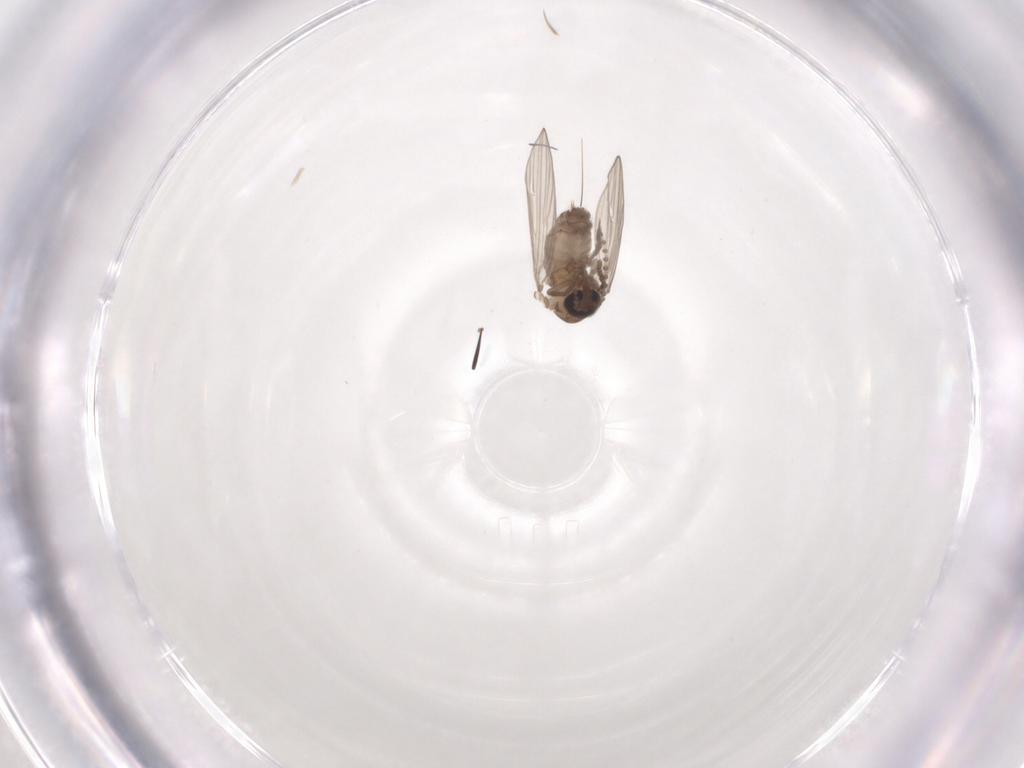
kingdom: Animalia
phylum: Arthropoda
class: Insecta
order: Diptera
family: Psychodidae
